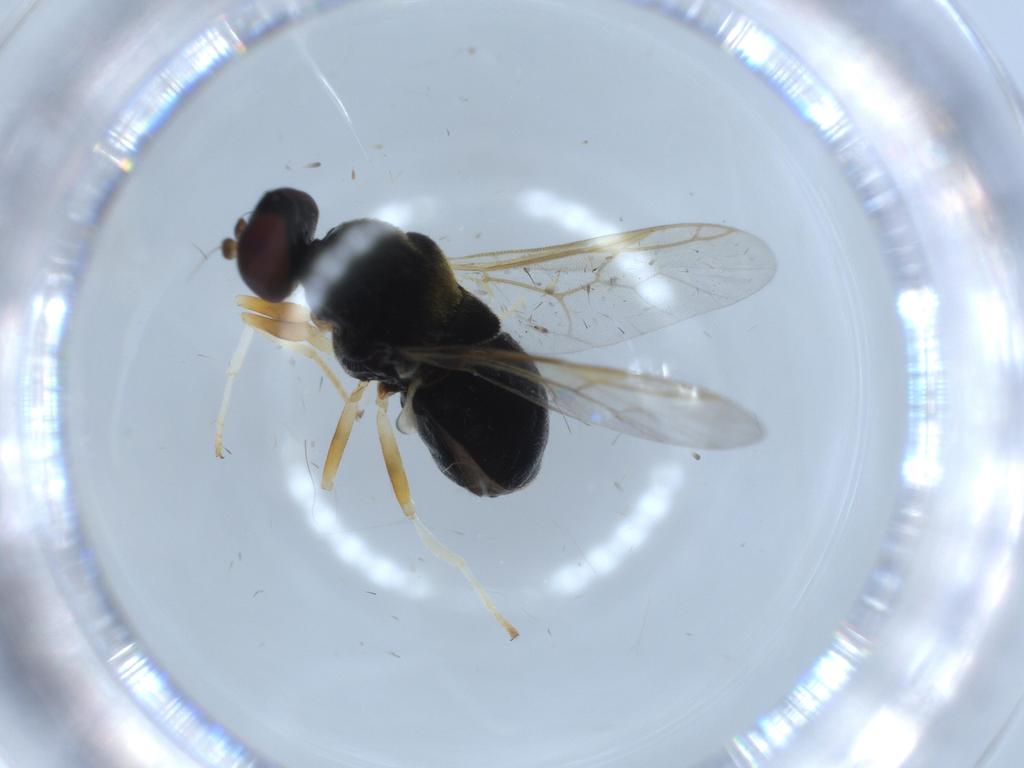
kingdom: Animalia
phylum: Arthropoda
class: Insecta
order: Diptera
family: Stratiomyidae
